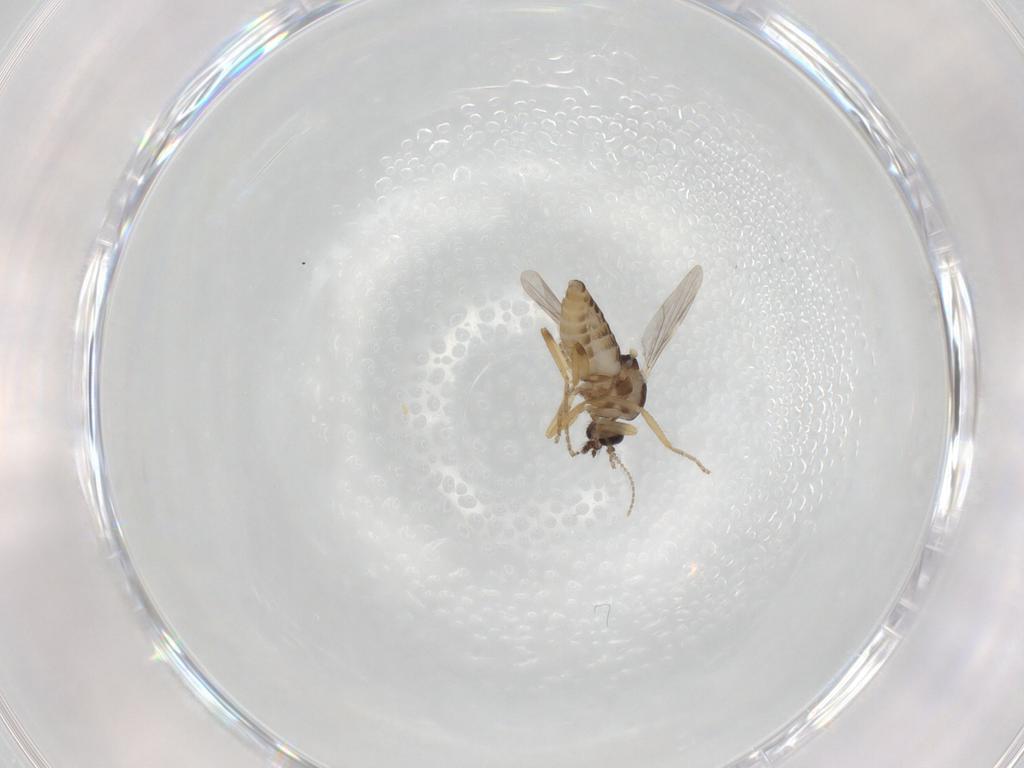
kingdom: Animalia
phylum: Arthropoda
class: Insecta
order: Diptera
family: Ceratopogonidae
